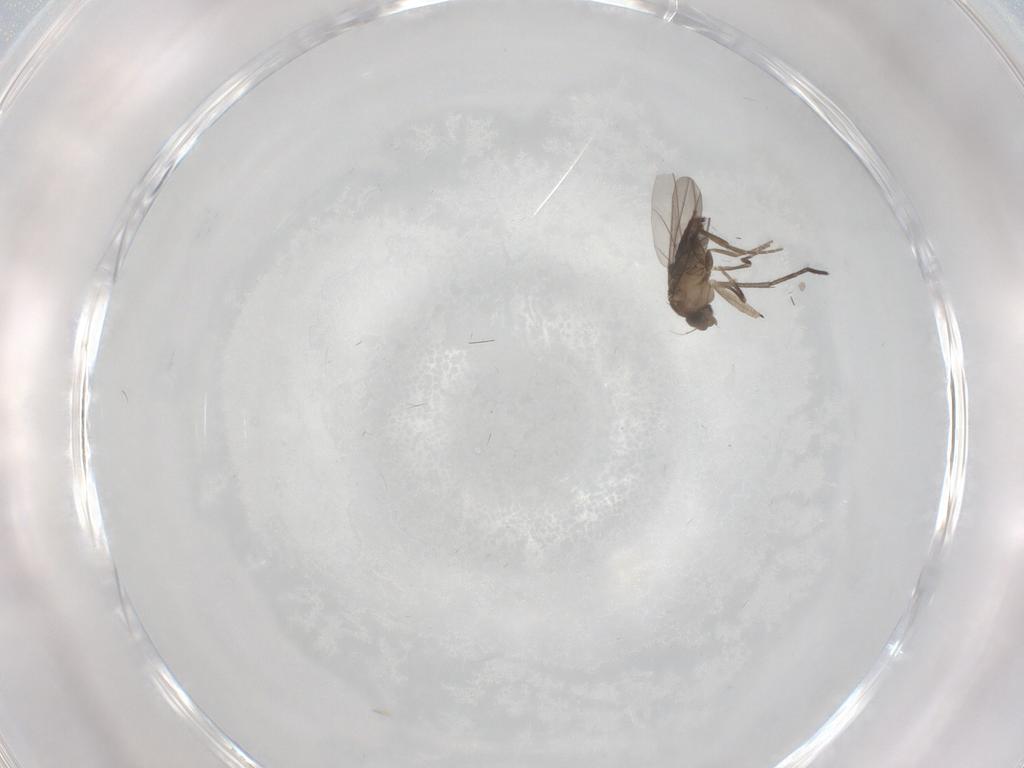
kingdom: Animalia
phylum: Arthropoda
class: Insecta
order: Diptera
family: Sciaridae
